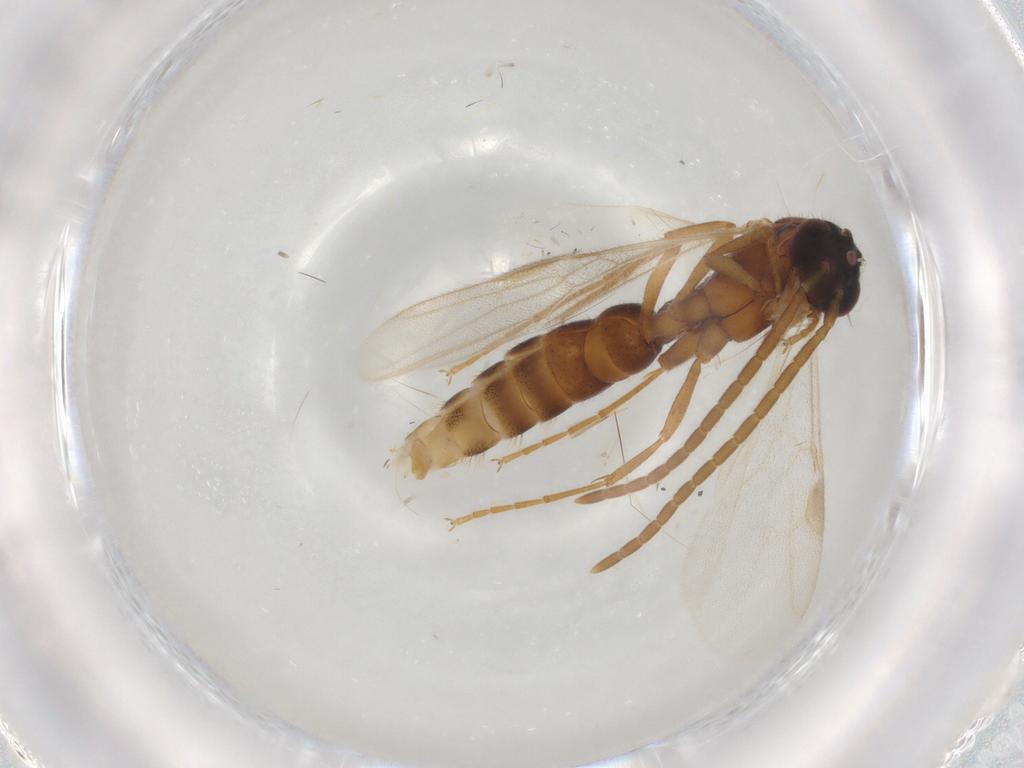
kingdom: Animalia
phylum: Arthropoda
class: Insecta
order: Hymenoptera
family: Formicidae
